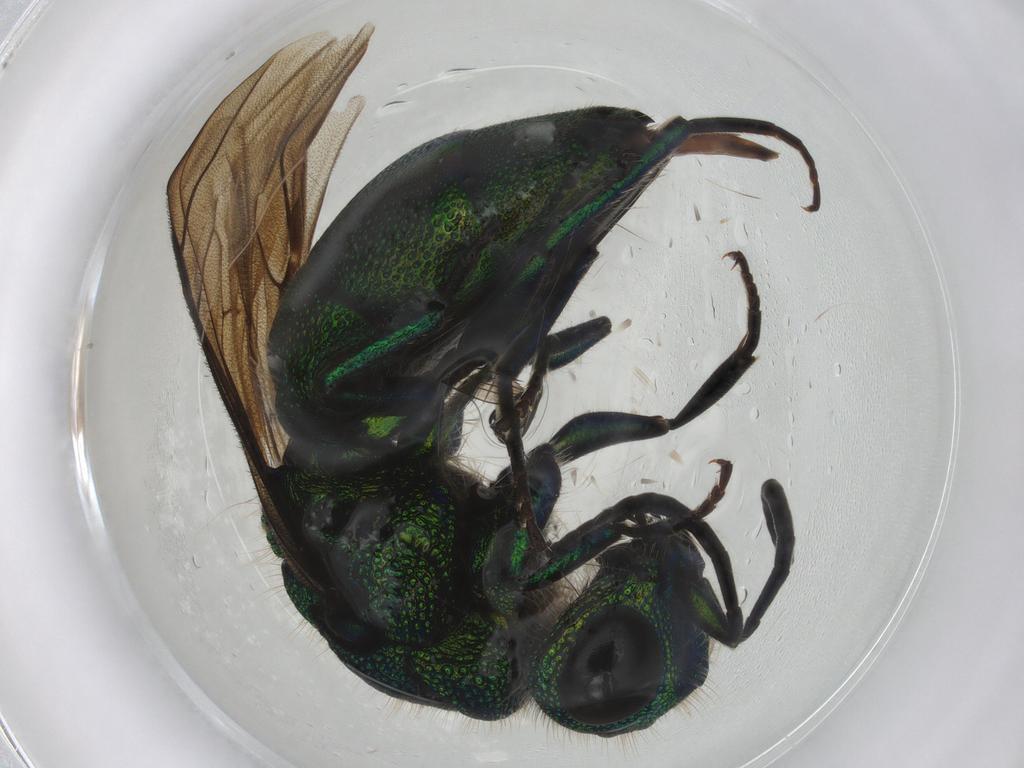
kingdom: Animalia
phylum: Arthropoda
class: Insecta
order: Hymenoptera
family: Chrysididae
